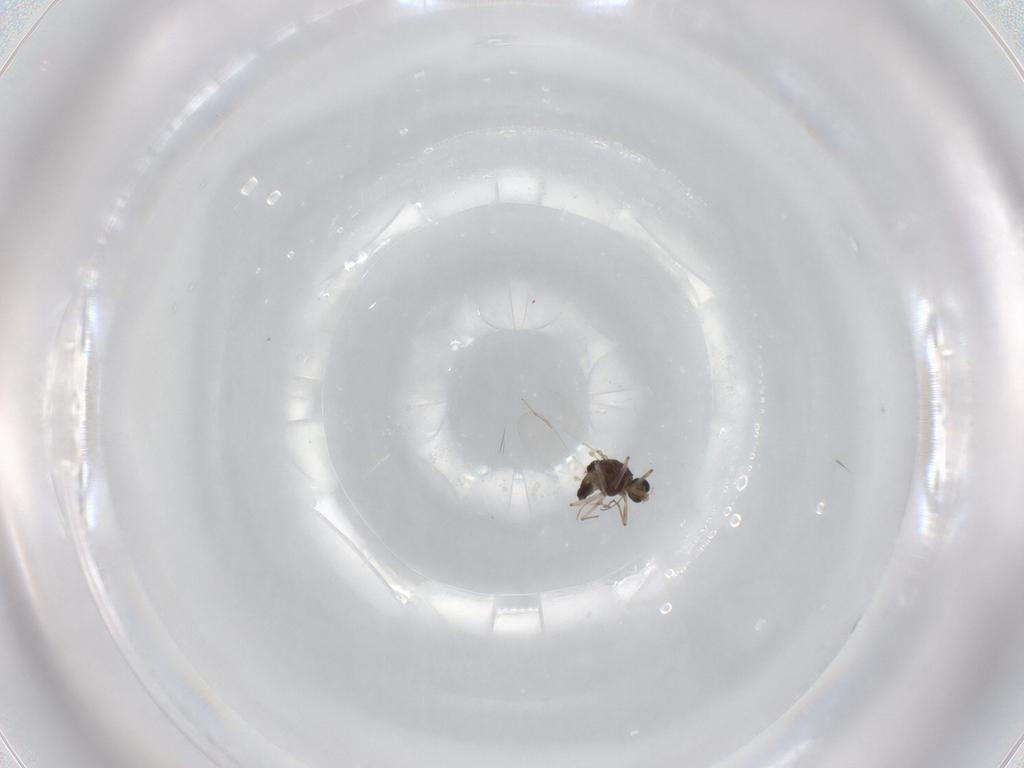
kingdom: Animalia
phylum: Arthropoda
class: Insecta
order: Diptera
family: Chironomidae
